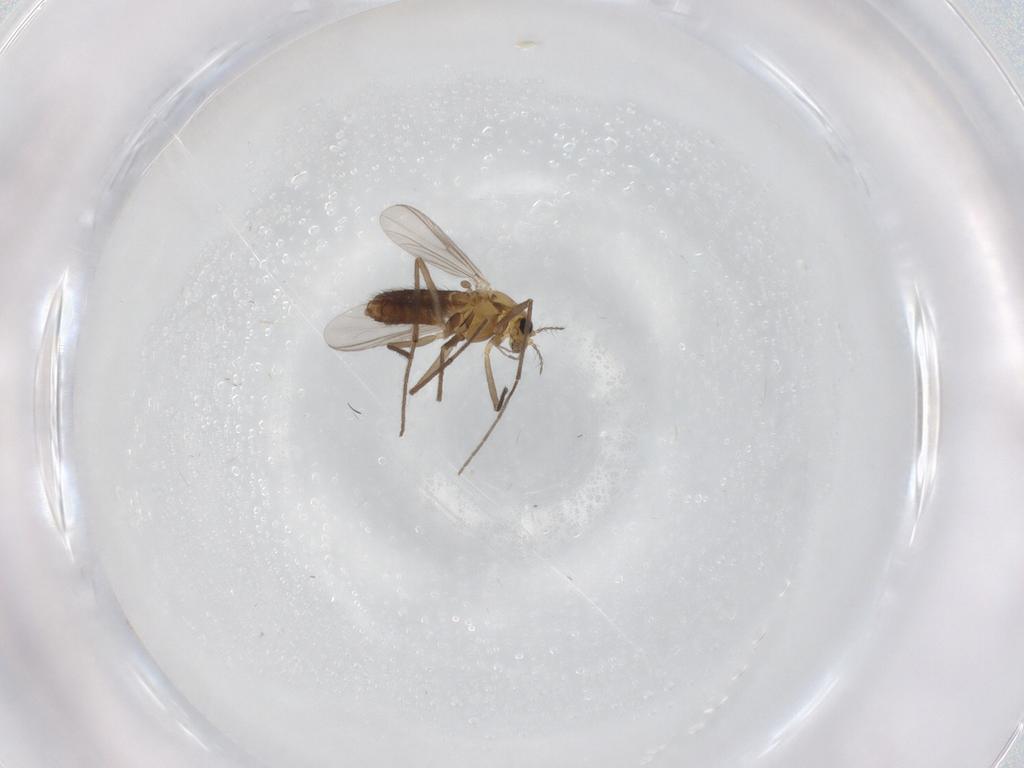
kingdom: Animalia
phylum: Arthropoda
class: Insecta
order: Diptera
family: Chironomidae
